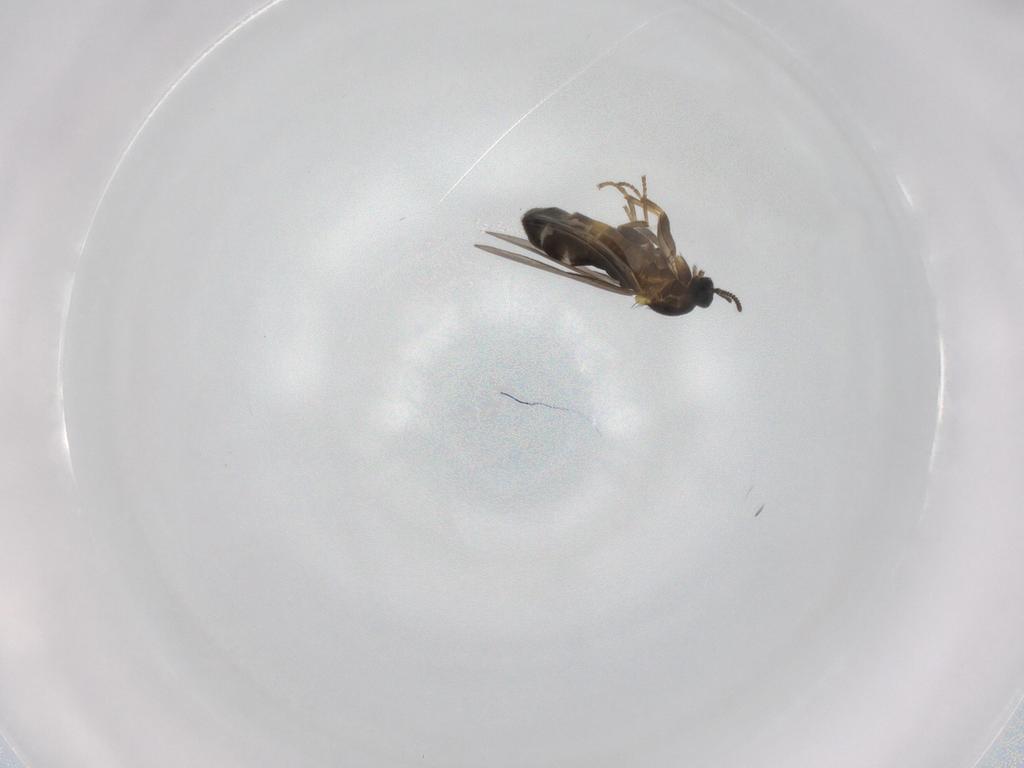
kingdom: Animalia
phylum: Arthropoda
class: Insecta
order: Diptera
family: Scatopsidae
